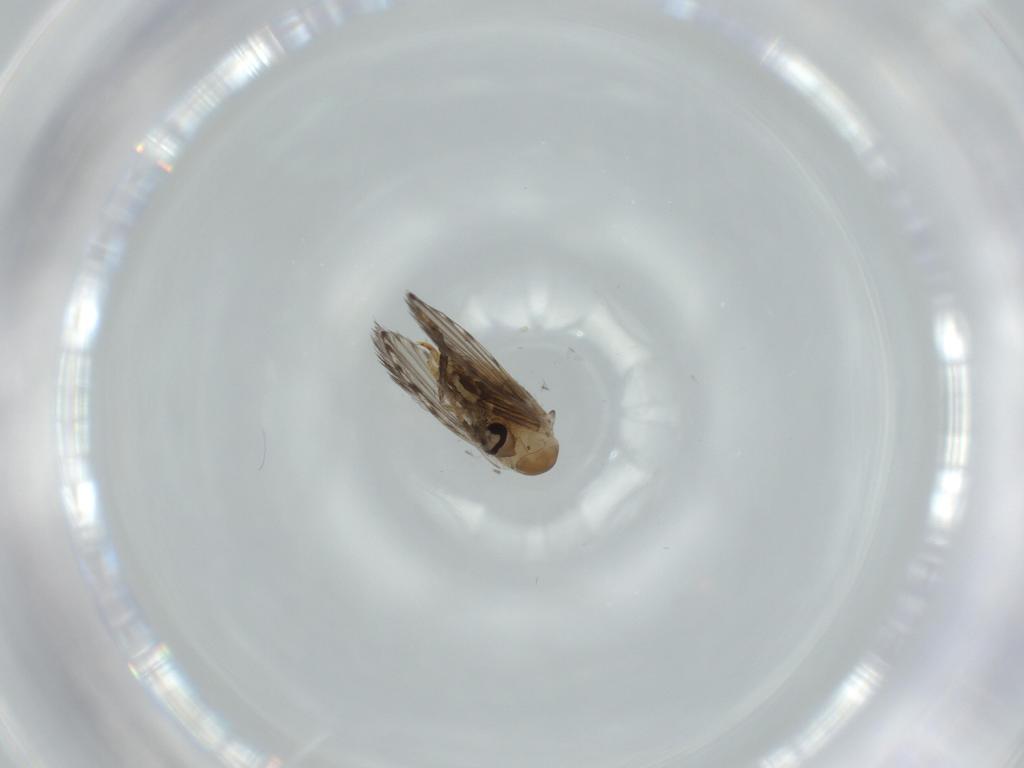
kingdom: Animalia
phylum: Arthropoda
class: Insecta
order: Diptera
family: Psychodidae
